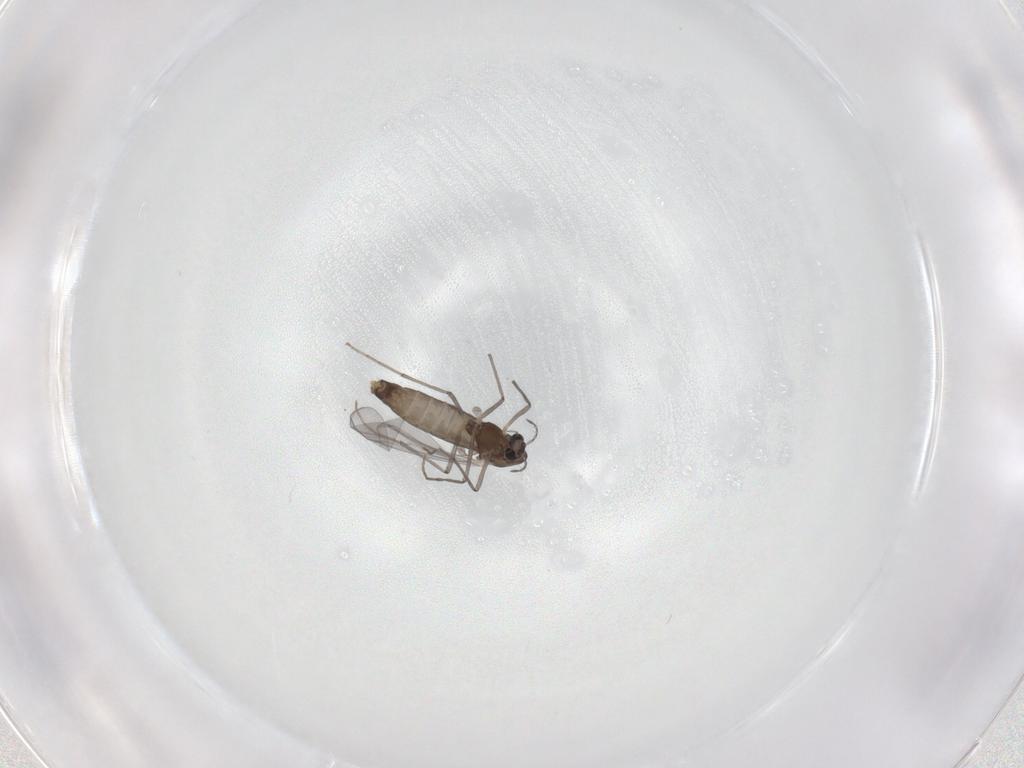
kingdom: Animalia
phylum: Arthropoda
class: Insecta
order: Diptera
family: Chironomidae
